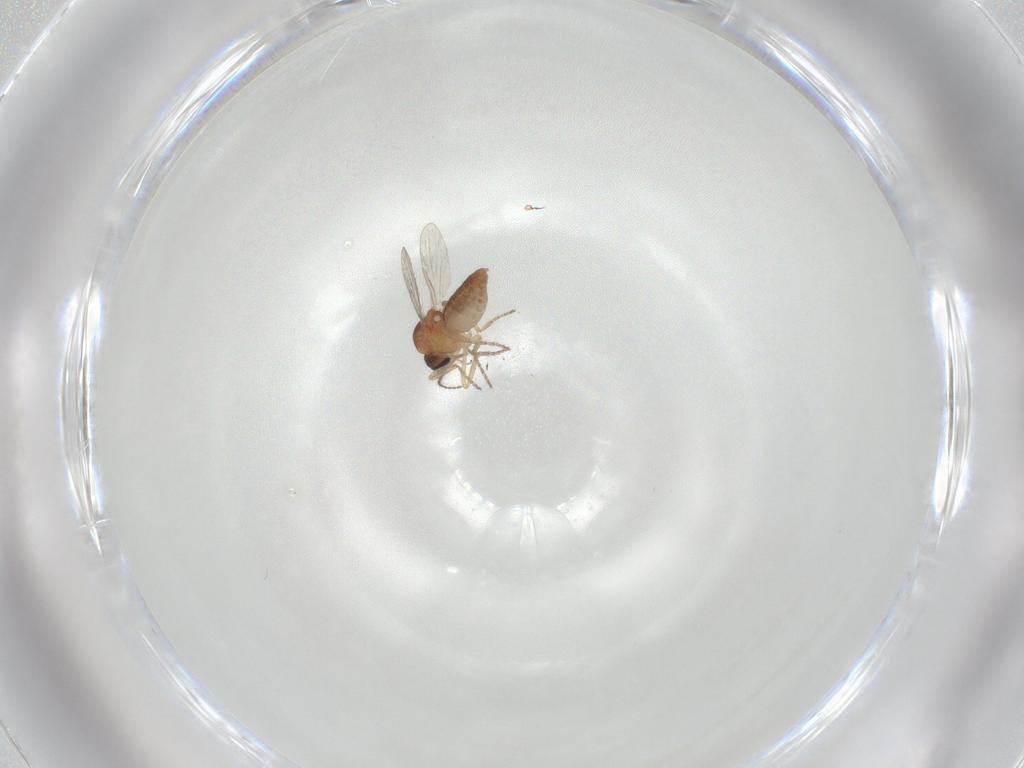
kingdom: Animalia
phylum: Arthropoda
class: Insecta
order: Diptera
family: Ceratopogonidae
